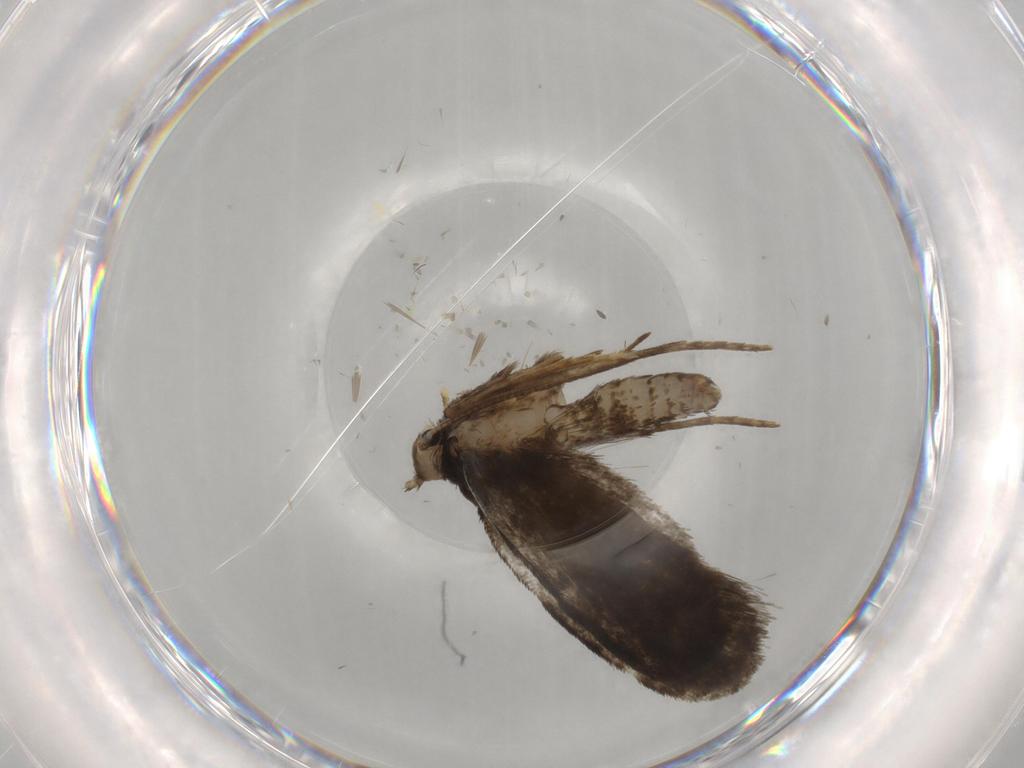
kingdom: Animalia
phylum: Arthropoda
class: Insecta
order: Lepidoptera
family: Psychidae
